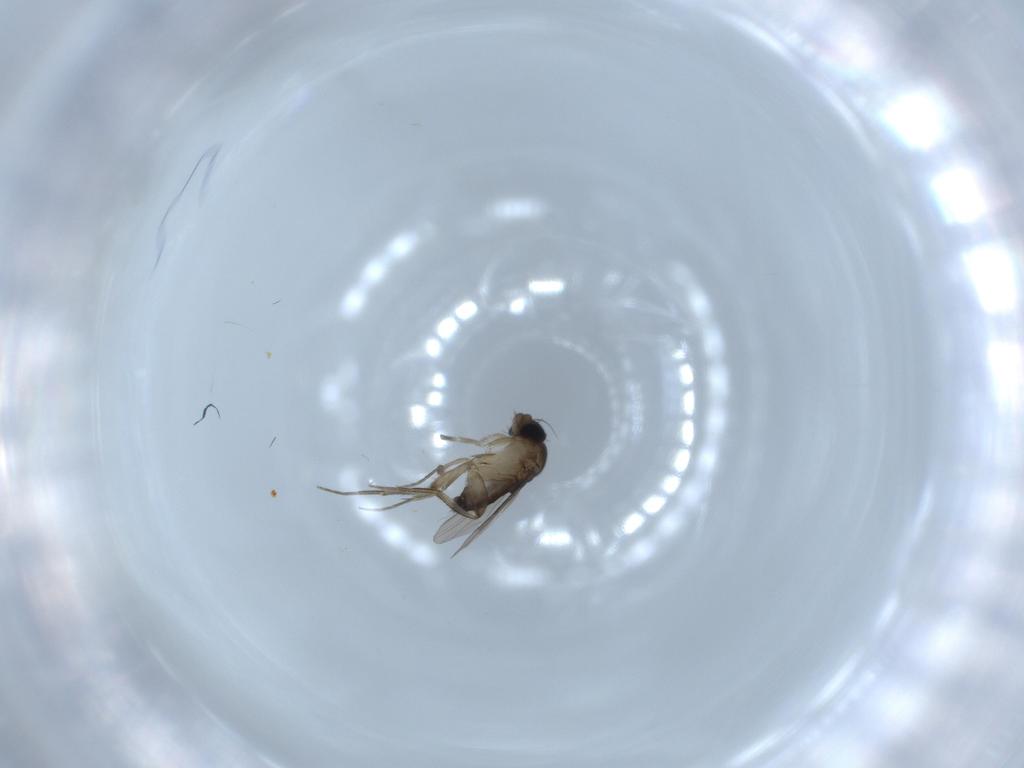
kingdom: Animalia
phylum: Arthropoda
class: Insecta
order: Diptera
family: Phoridae
